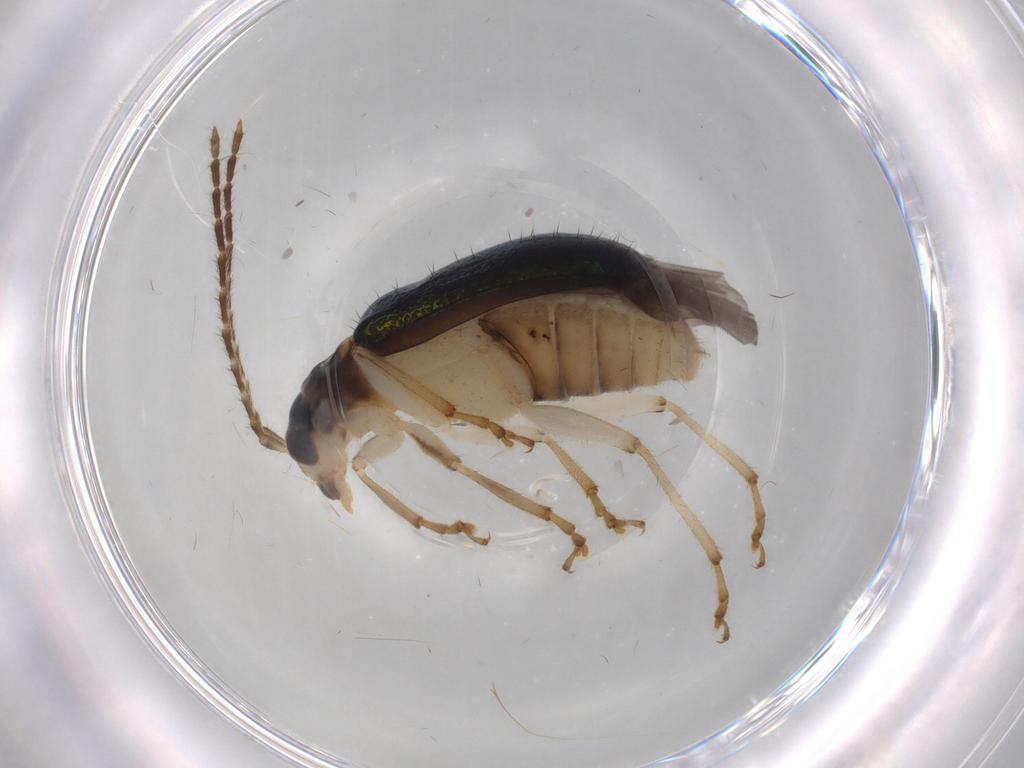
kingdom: Animalia
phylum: Arthropoda
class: Insecta
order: Coleoptera
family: Chrysomelidae
